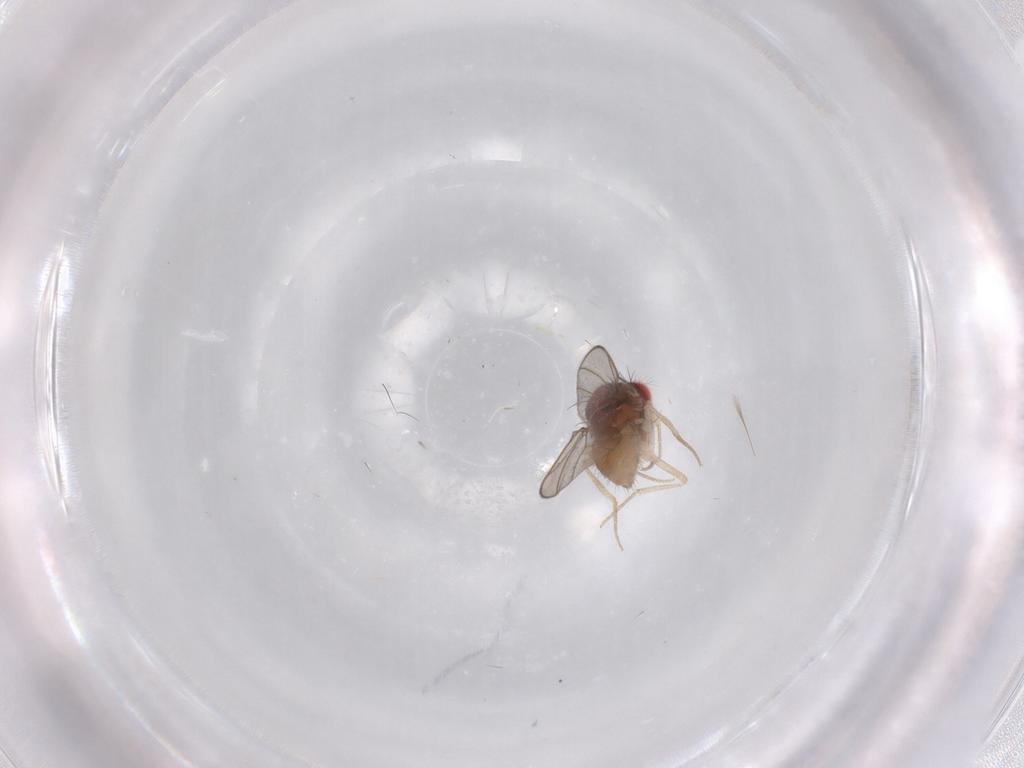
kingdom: Animalia
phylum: Arthropoda
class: Insecta
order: Diptera
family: Drosophilidae
